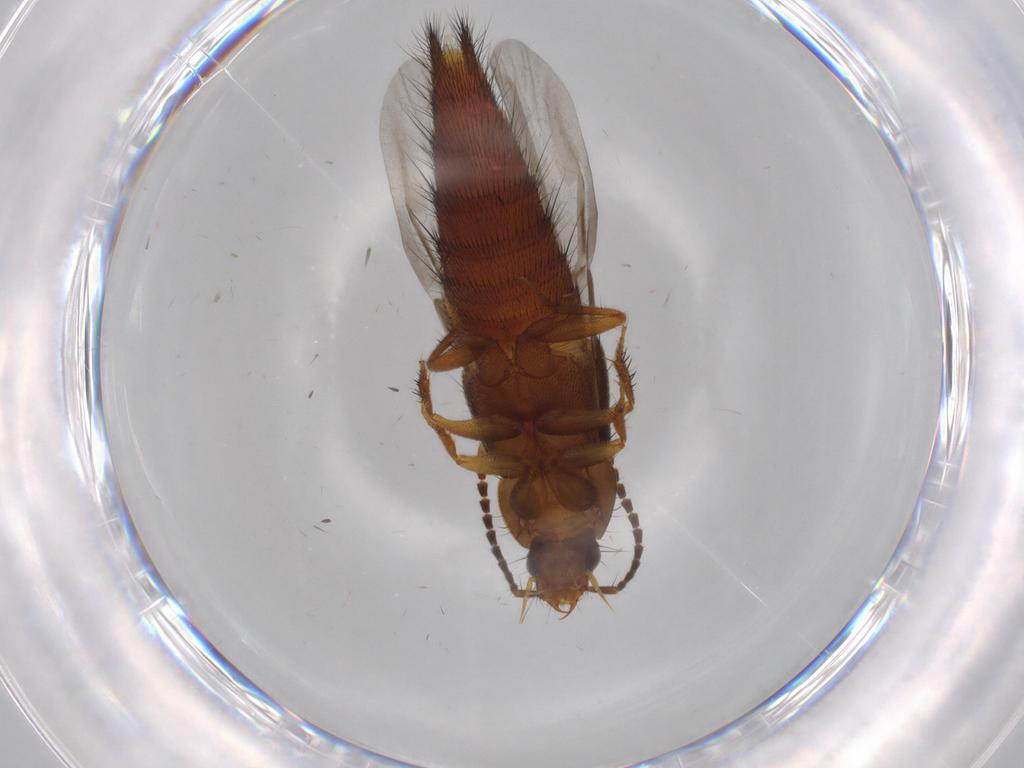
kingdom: Animalia
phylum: Arthropoda
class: Insecta
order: Coleoptera
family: Staphylinidae
